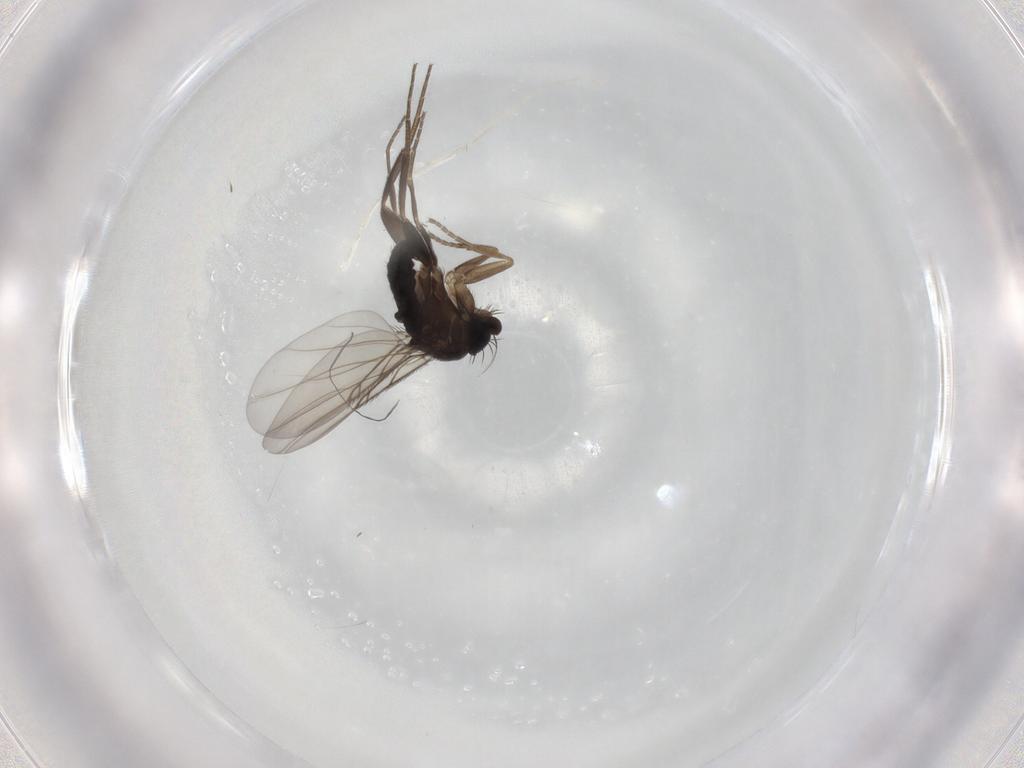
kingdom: Animalia
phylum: Arthropoda
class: Insecta
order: Diptera
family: Phoridae
